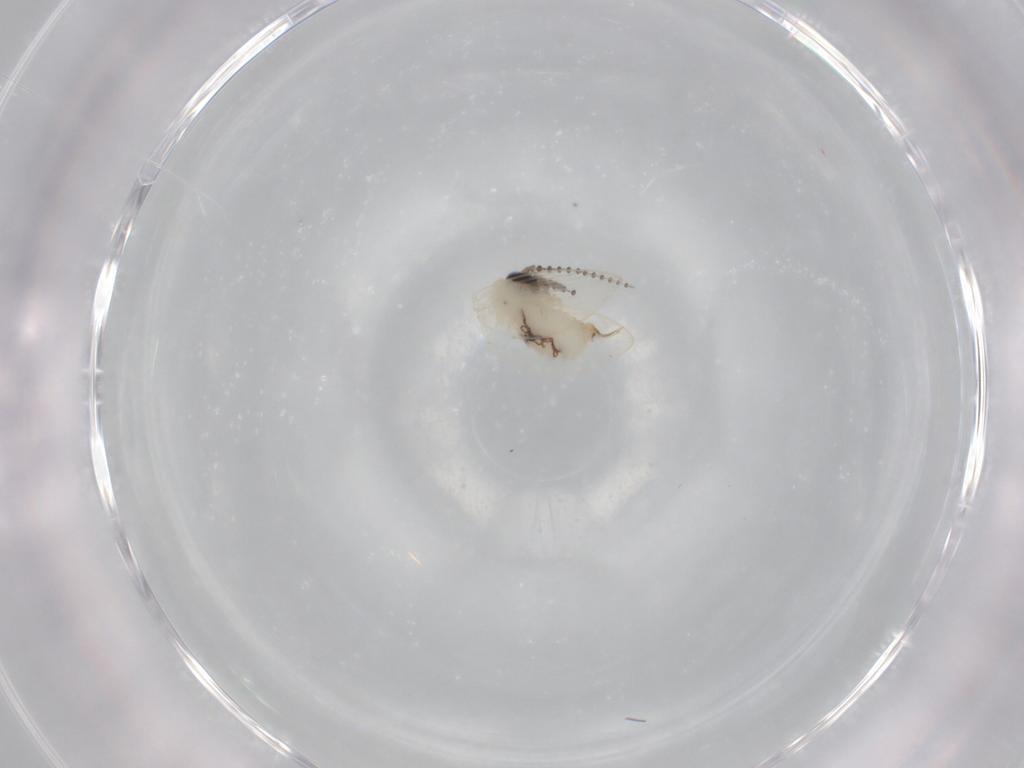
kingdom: Animalia
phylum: Arthropoda
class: Insecta
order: Diptera
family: Psychodidae
